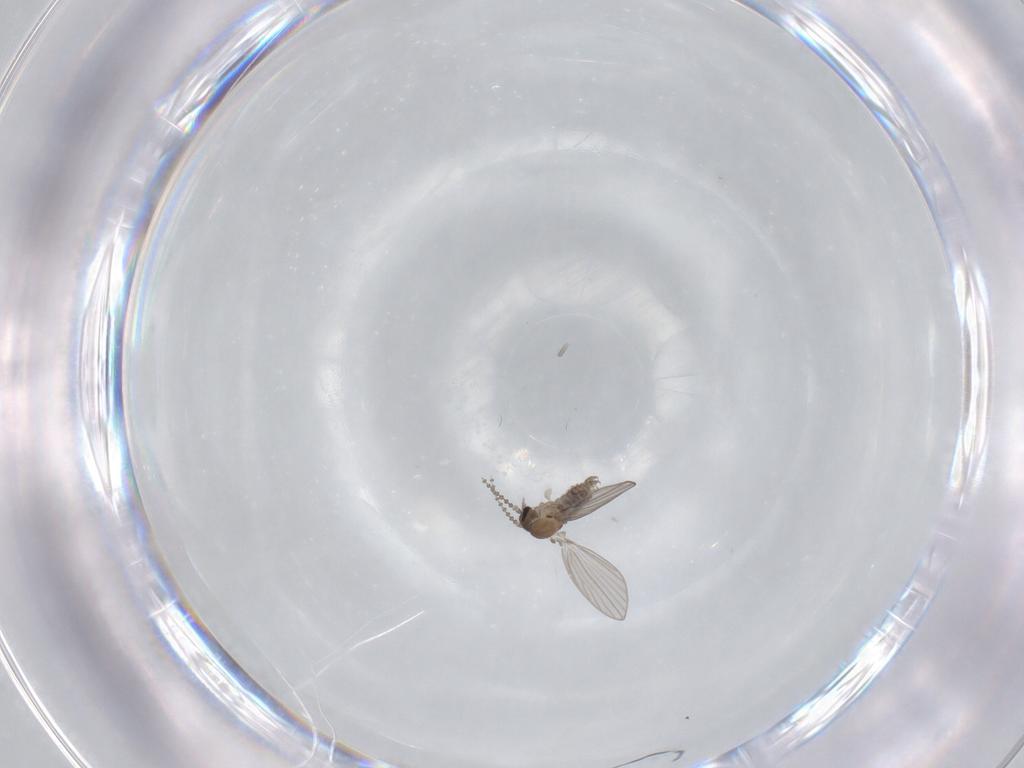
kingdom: Animalia
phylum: Arthropoda
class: Insecta
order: Diptera
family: Psychodidae
